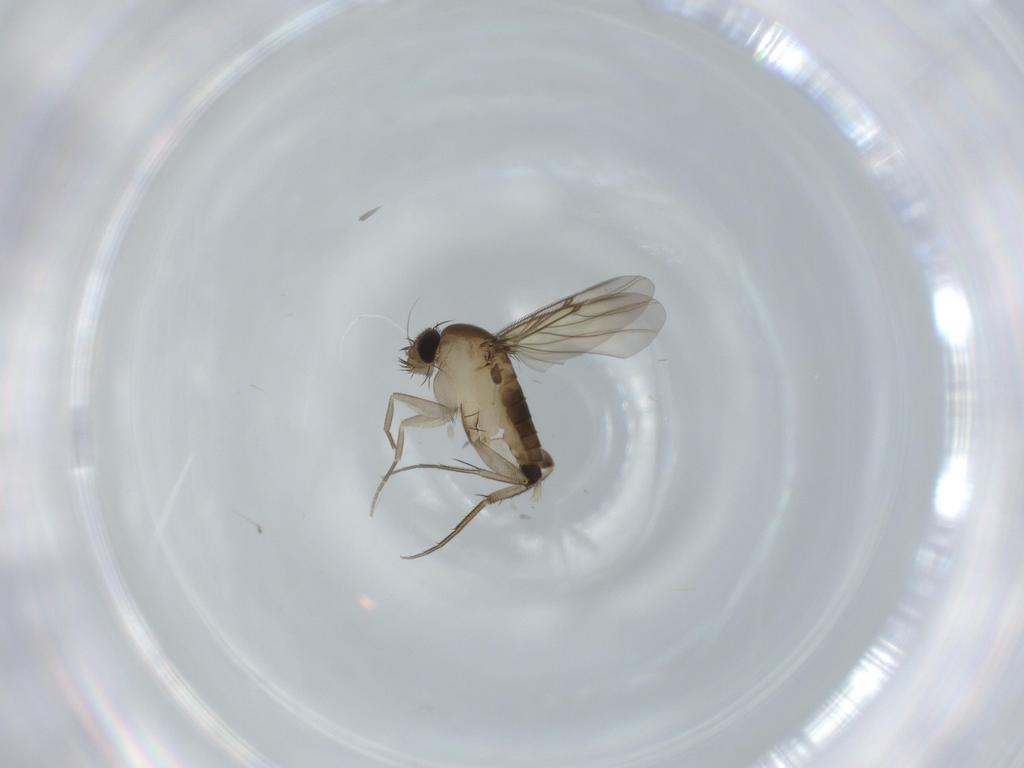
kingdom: Animalia
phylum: Arthropoda
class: Insecta
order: Diptera
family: Phoridae
